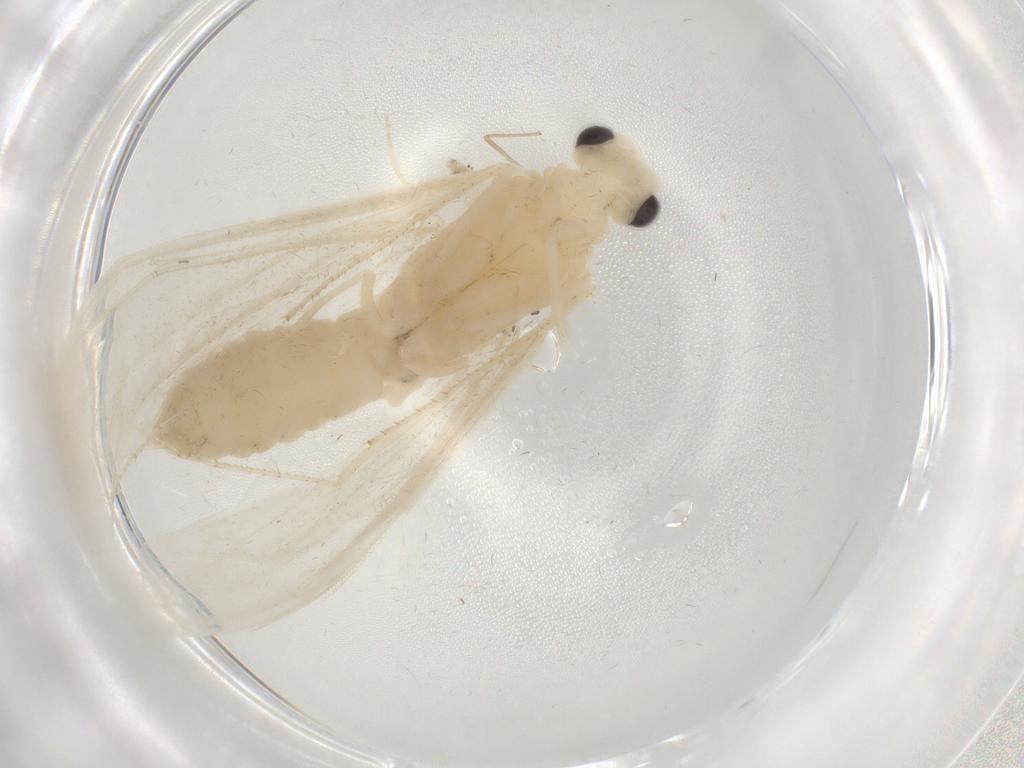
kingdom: Animalia
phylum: Arthropoda
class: Insecta
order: Trichoptera
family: Leptoceridae
